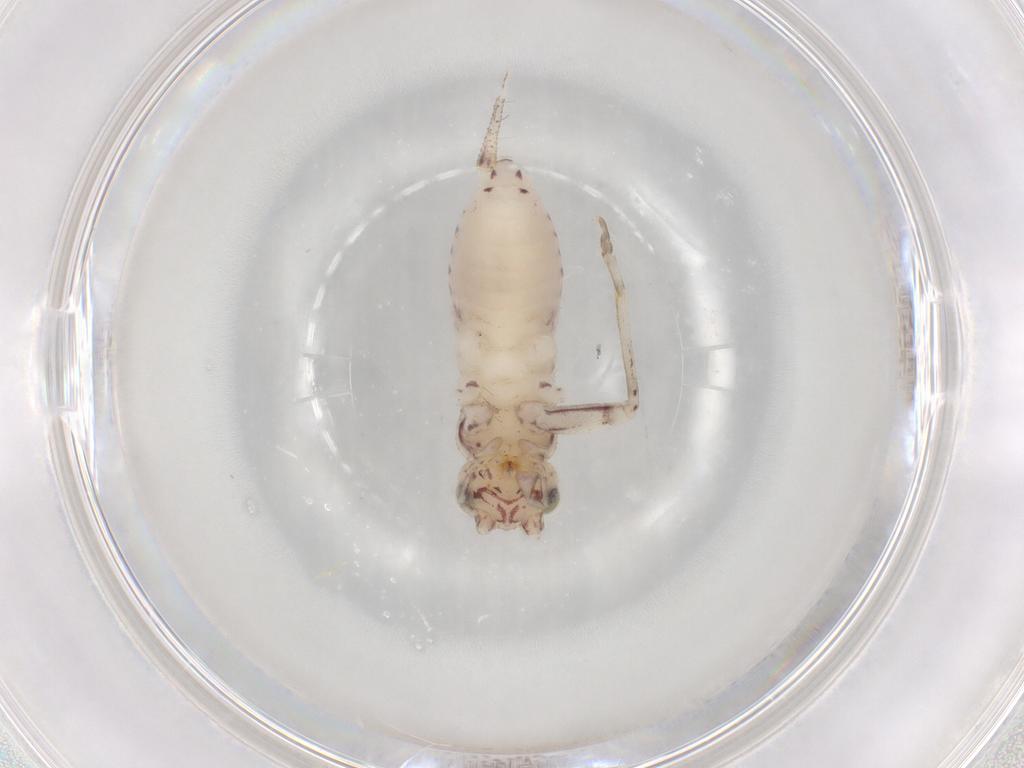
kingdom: Animalia
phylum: Arthropoda
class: Insecta
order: Orthoptera
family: Trigonidiidae
